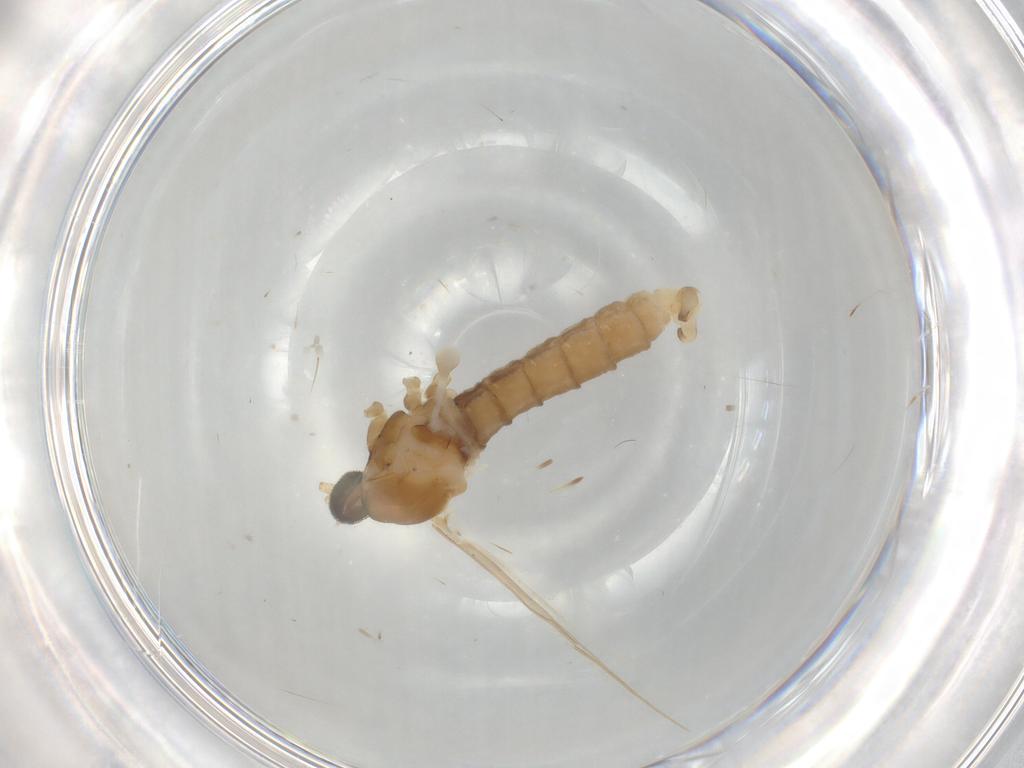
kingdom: Animalia
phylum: Arthropoda
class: Insecta
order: Diptera
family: Cecidomyiidae
